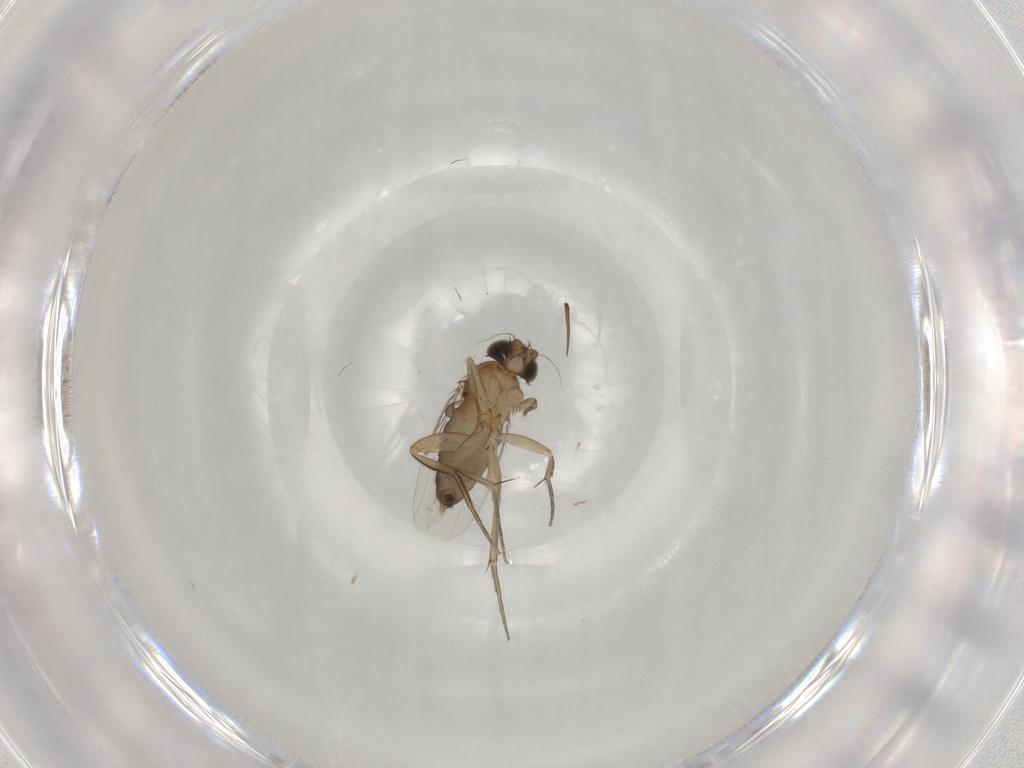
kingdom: Animalia
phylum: Arthropoda
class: Insecta
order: Diptera
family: Phoridae
